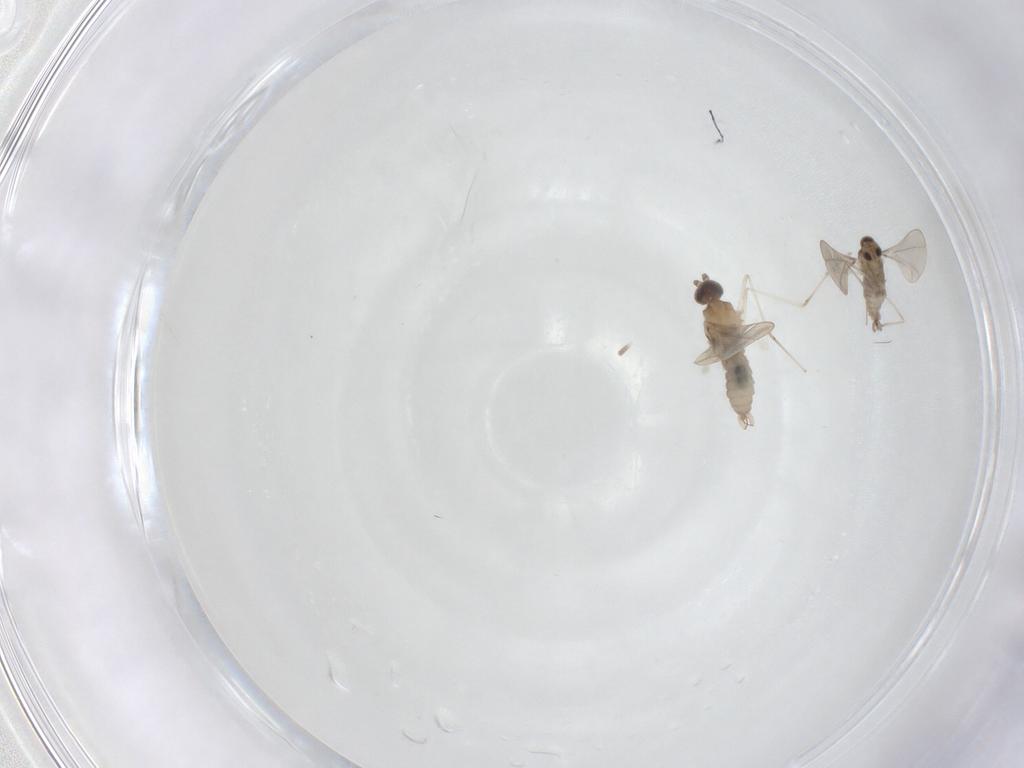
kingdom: Animalia
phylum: Arthropoda
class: Insecta
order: Diptera
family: Cecidomyiidae
